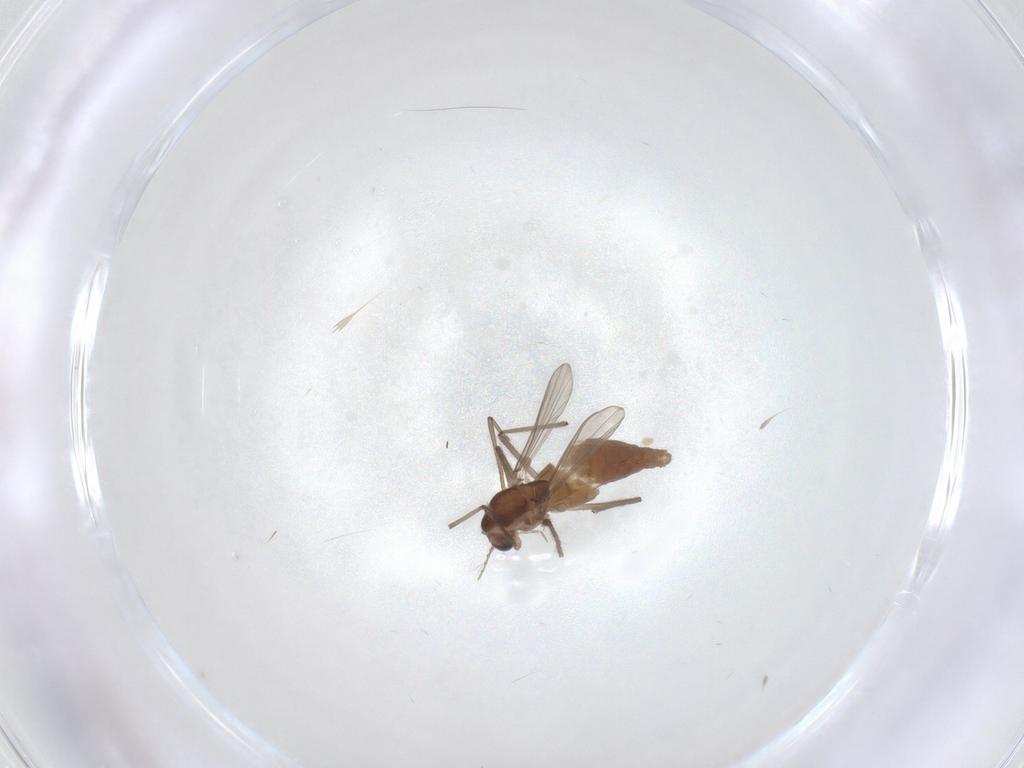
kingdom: Animalia
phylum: Arthropoda
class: Insecta
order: Diptera
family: Chironomidae
